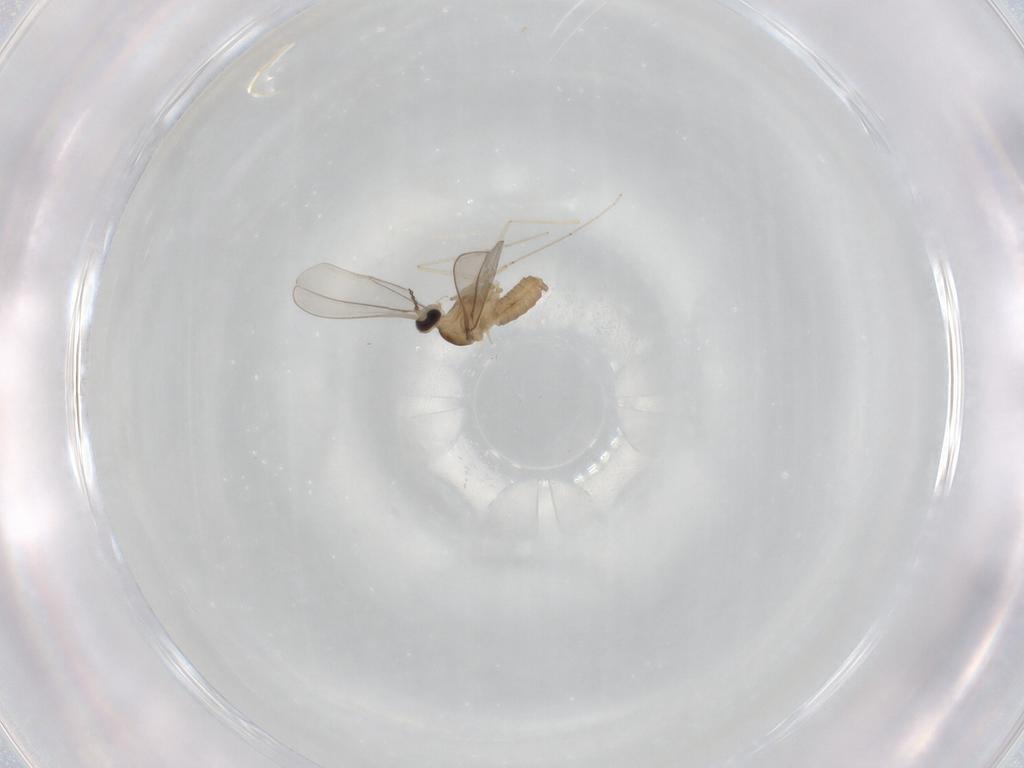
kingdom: Animalia
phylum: Arthropoda
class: Insecta
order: Diptera
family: Cecidomyiidae
